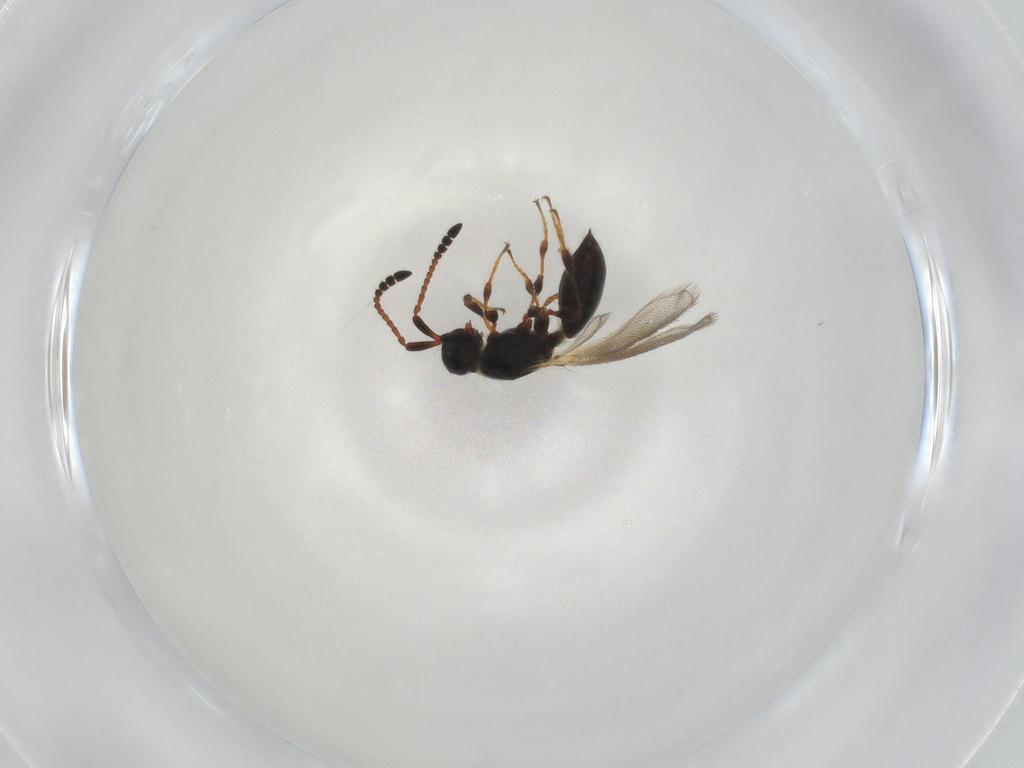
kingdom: Animalia
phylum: Arthropoda
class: Insecta
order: Hymenoptera
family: Diapriidae
